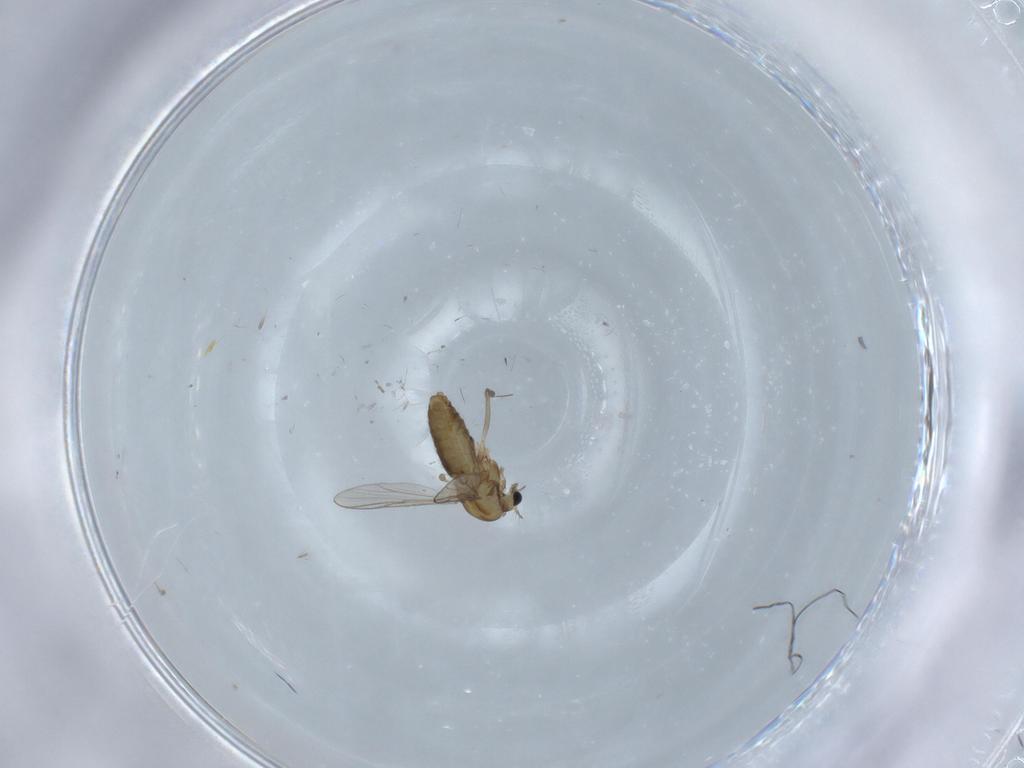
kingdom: Animalia
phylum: Arthropoda
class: Insecta
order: Diptera
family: Chironomidae
